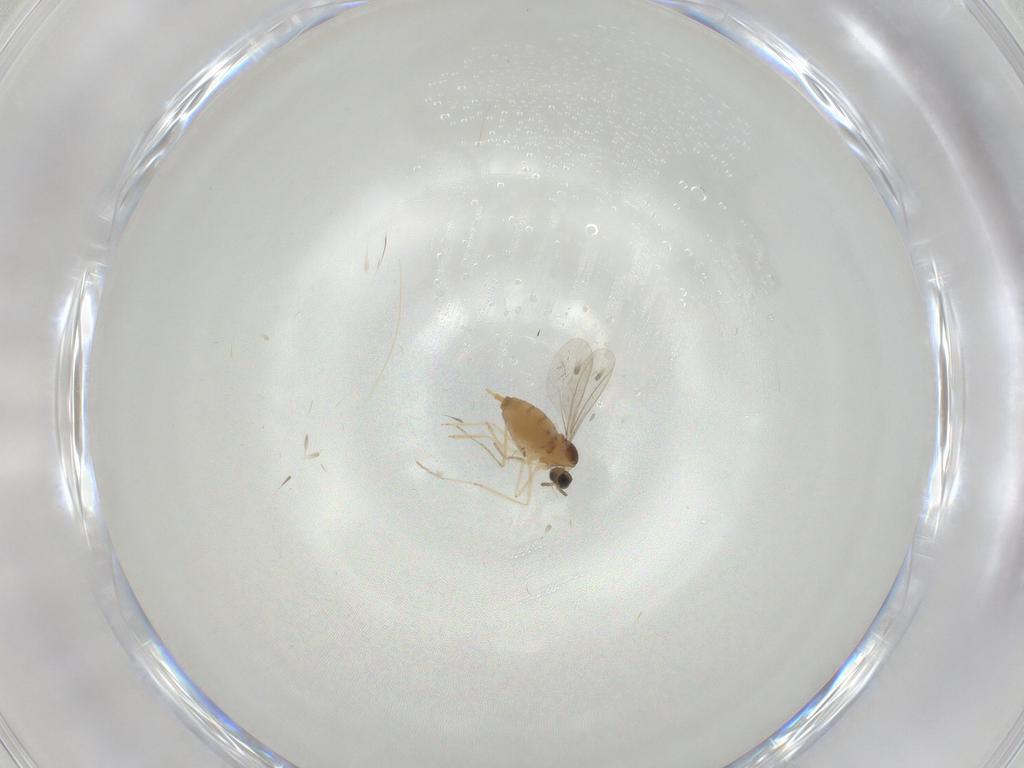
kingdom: Animalia
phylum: Arthropoda
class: Insecta
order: Diptera
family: Cecidomyiidae
